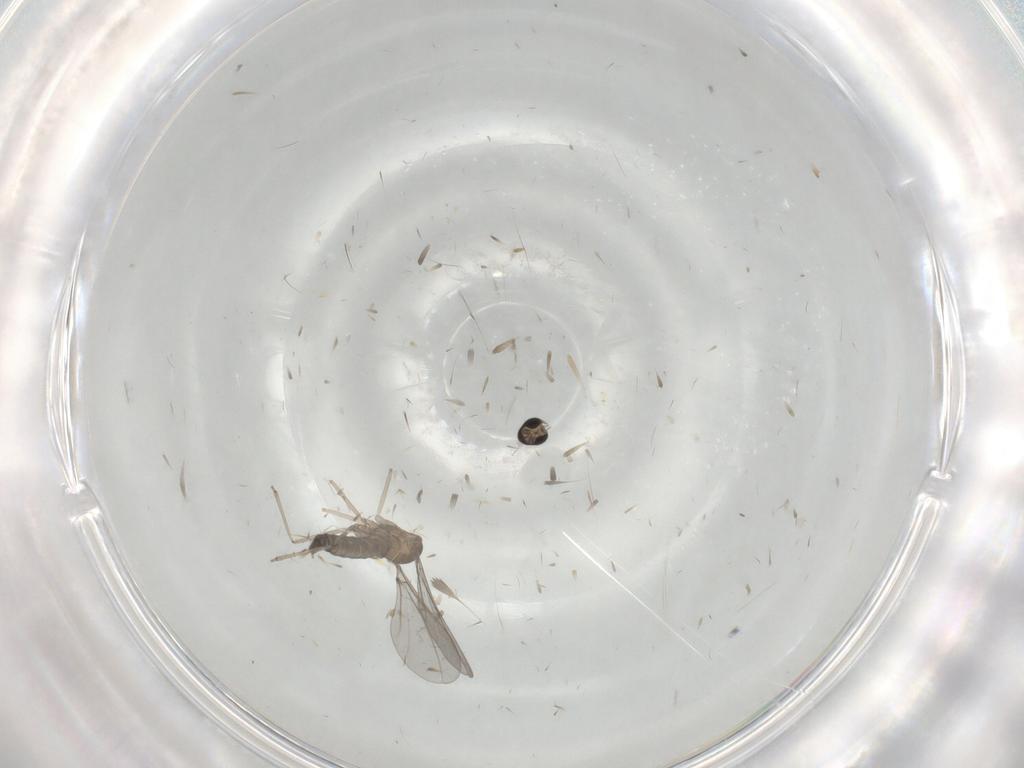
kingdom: Animalia
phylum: Arthropoda
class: Insecta
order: Diptera
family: Cecidomyiidae
